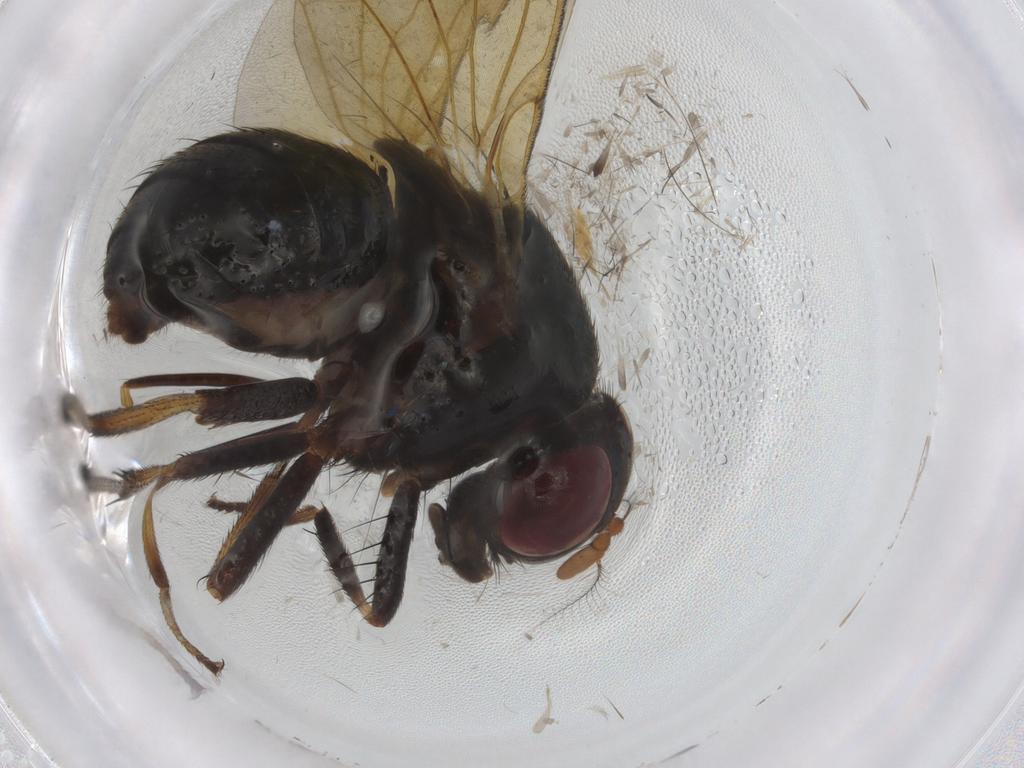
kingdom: Animalia
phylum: Arthropoda
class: Insecta
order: Diptera
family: Lauxaniidae
